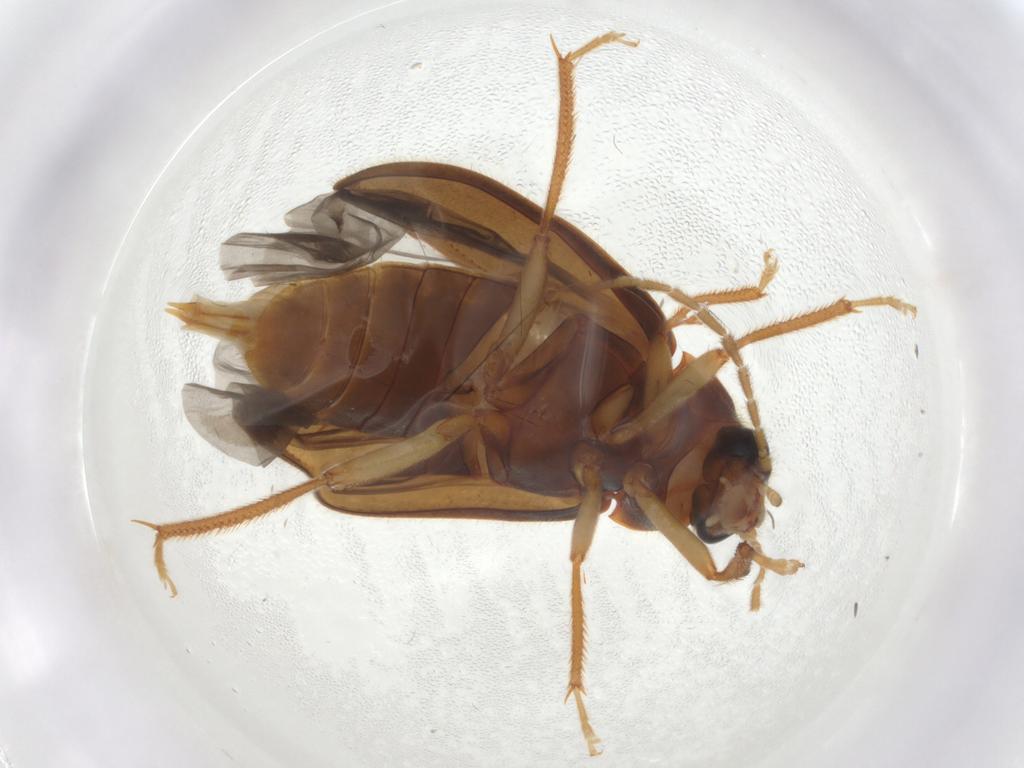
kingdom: Animalia
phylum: Arthropoda
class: Insecta
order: Coleoptera
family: Ptilodactylidae
